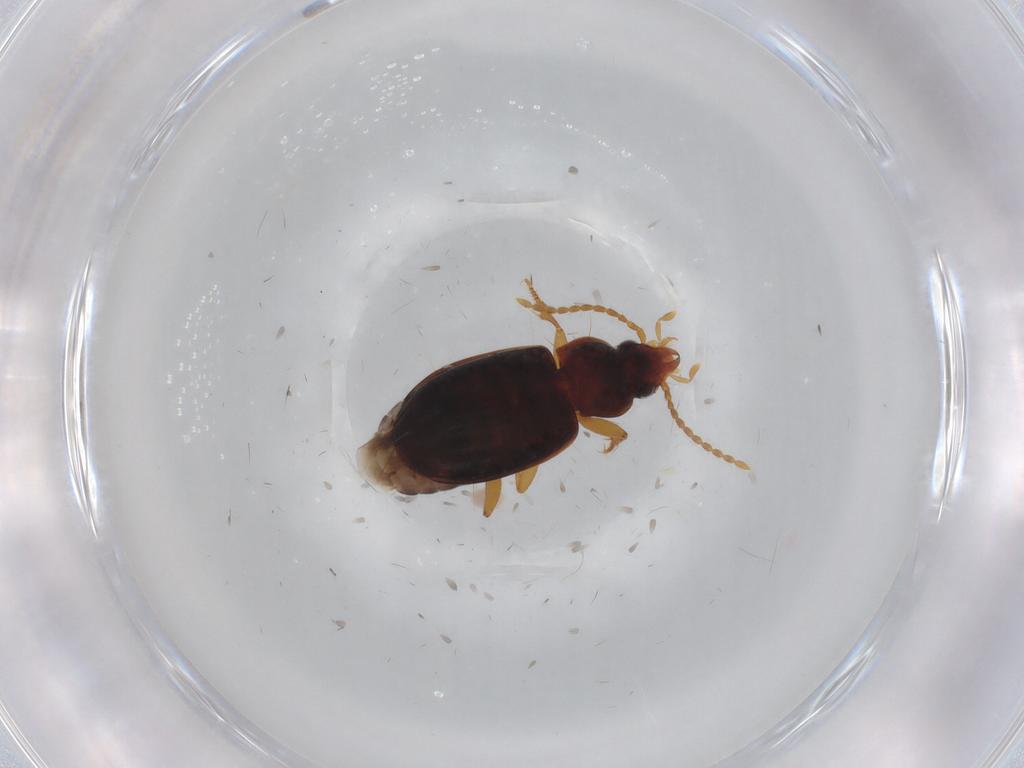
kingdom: Animalia
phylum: Arthropoda
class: Insecta
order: Coleoptera
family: Carabidae
